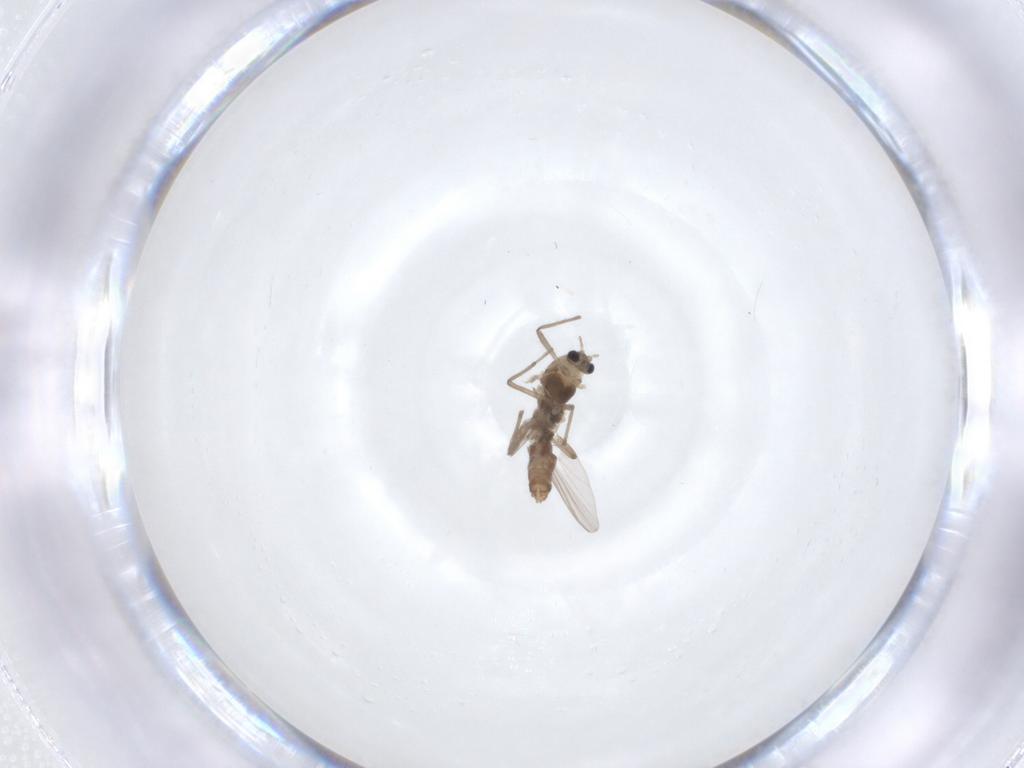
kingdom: Animalia
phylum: Arthropoda
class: Insecta
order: Diptera
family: Chironomidae
